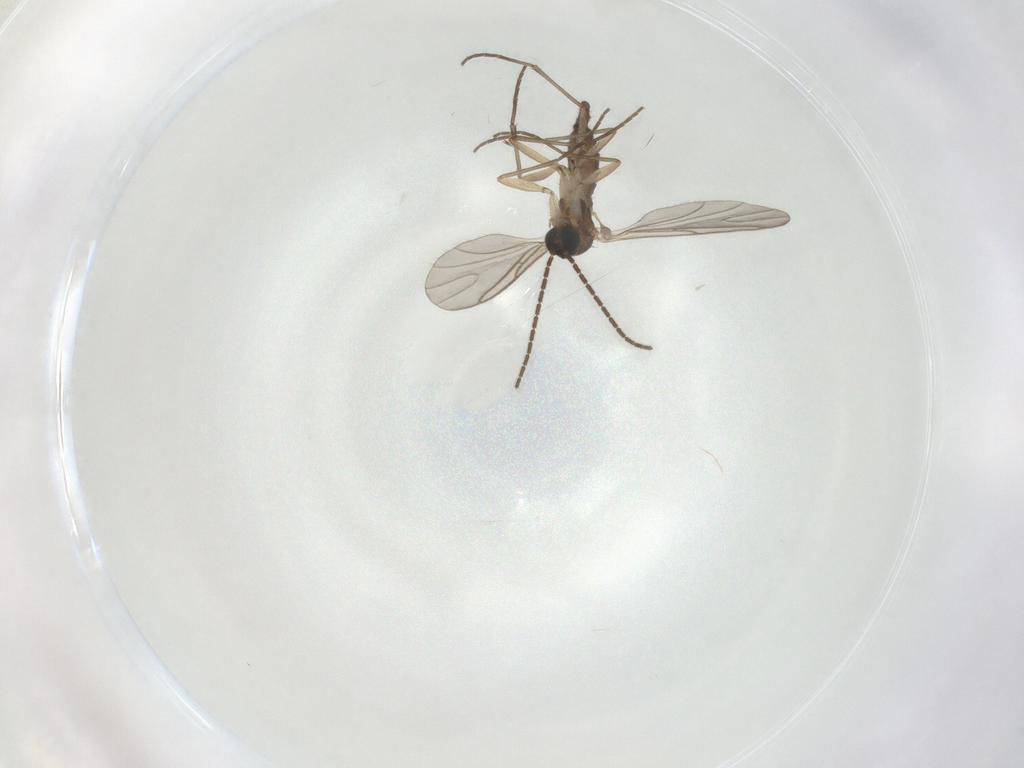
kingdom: Animalia
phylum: Arthropoda
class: Insecta
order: Diptera
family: Cecidomyiidae
